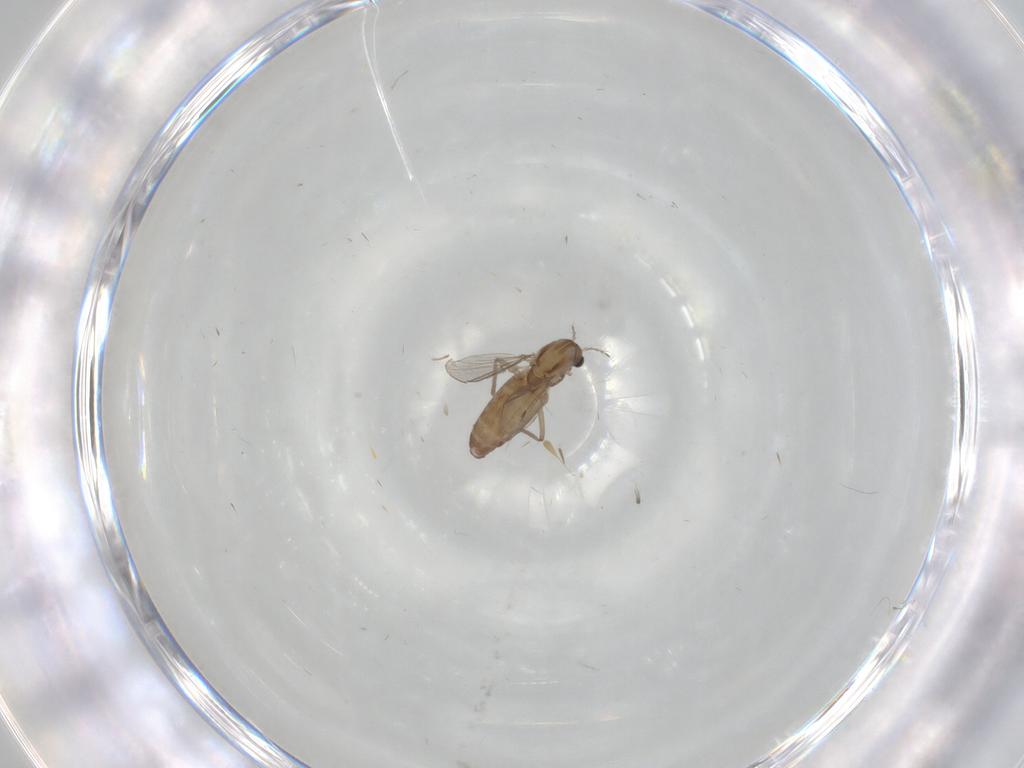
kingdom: Animalia
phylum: Arthropoda
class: Insecta
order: Diptera
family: Chironomidae
